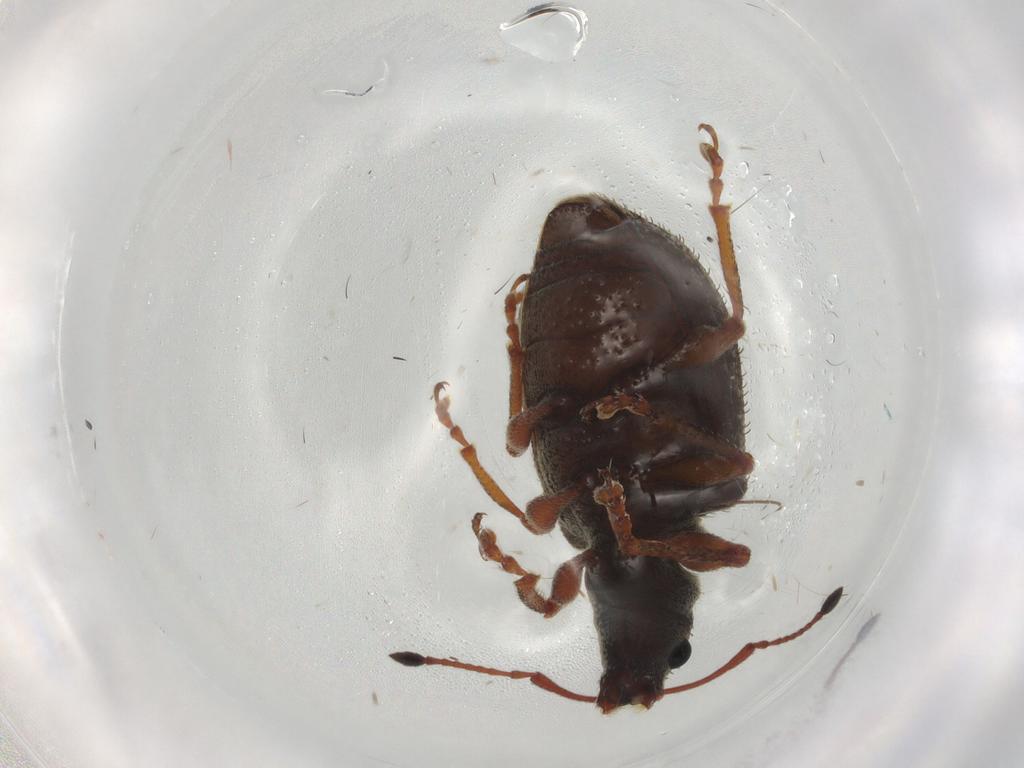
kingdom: Animalia
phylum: Arthropoda
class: Insecta
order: Coleoptera
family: Curculionidae
